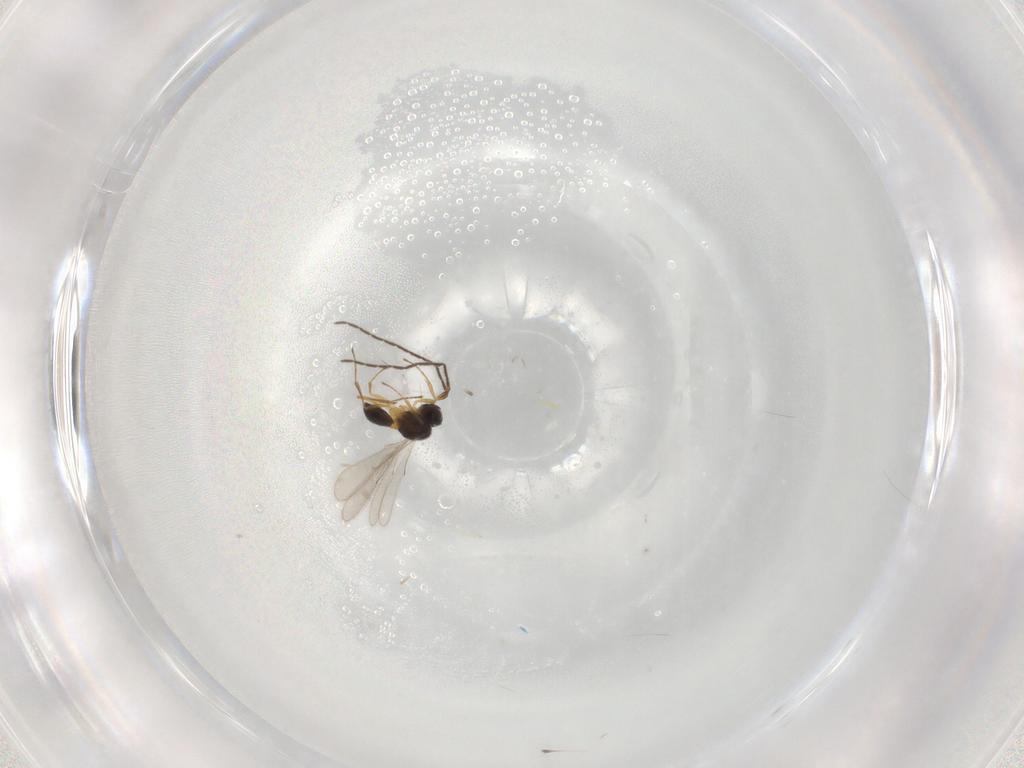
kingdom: Animalia
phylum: Arthropoda
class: Insecta
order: Hymenoptera
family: Scelionidae
